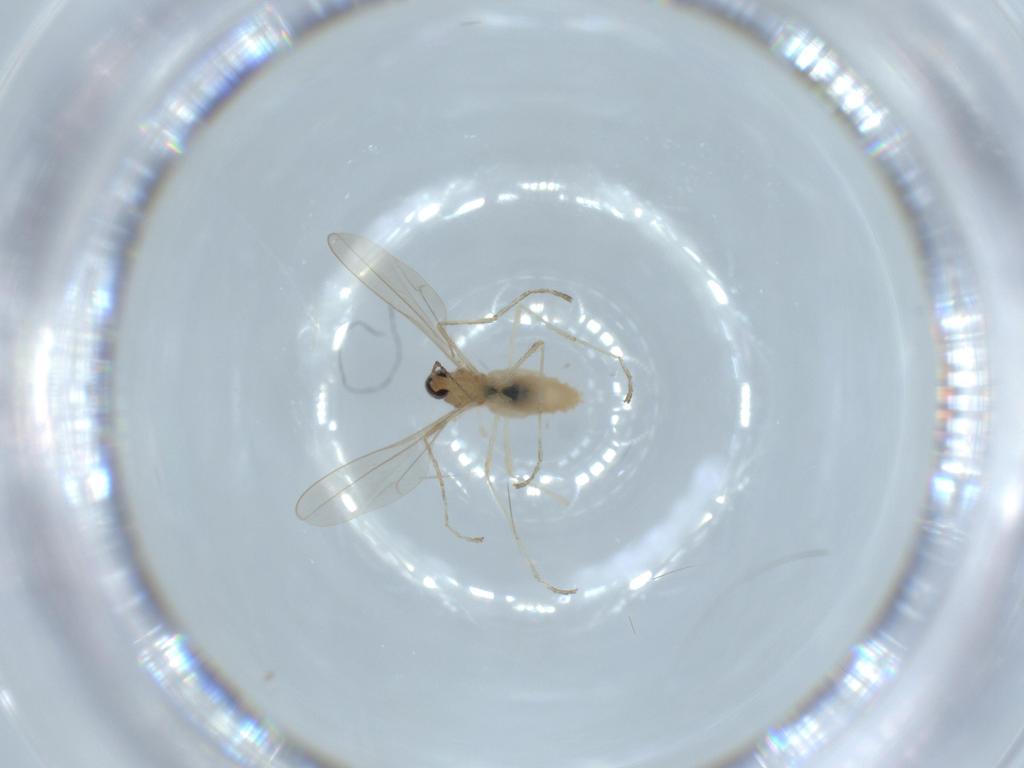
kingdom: Animalia
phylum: Arthropoda
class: Insecta
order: Diptera
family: Cecidomyiidae
